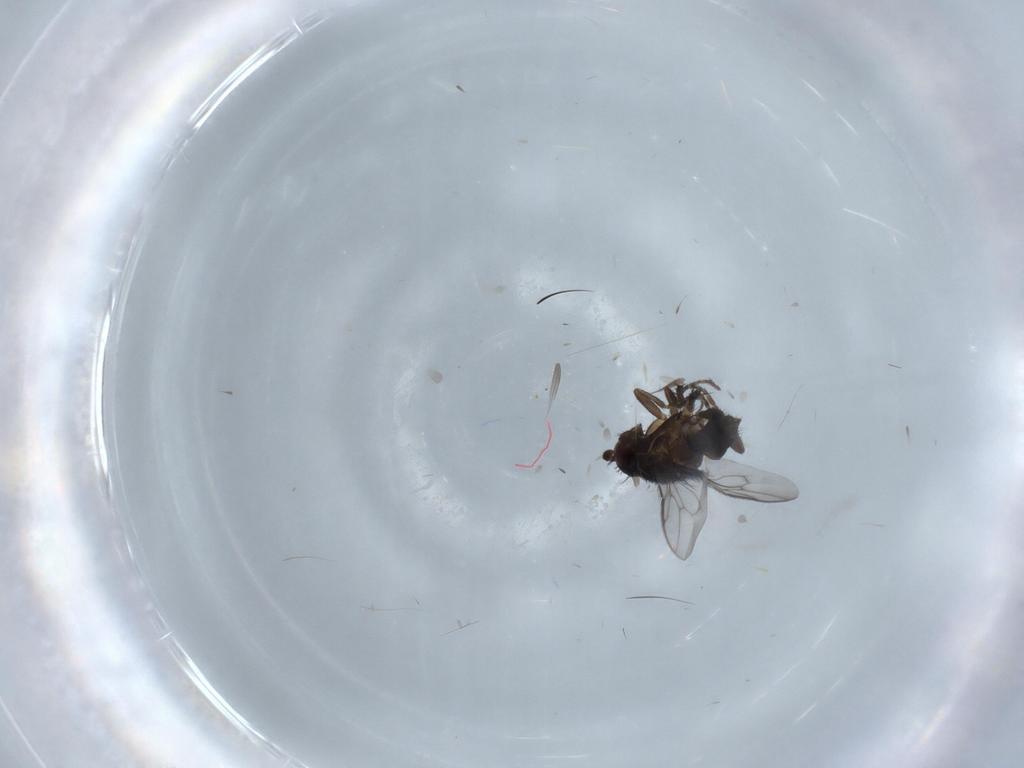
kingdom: Animalia
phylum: Arthropoda
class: Insecta
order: Diptera
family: Sphaeroceridae
